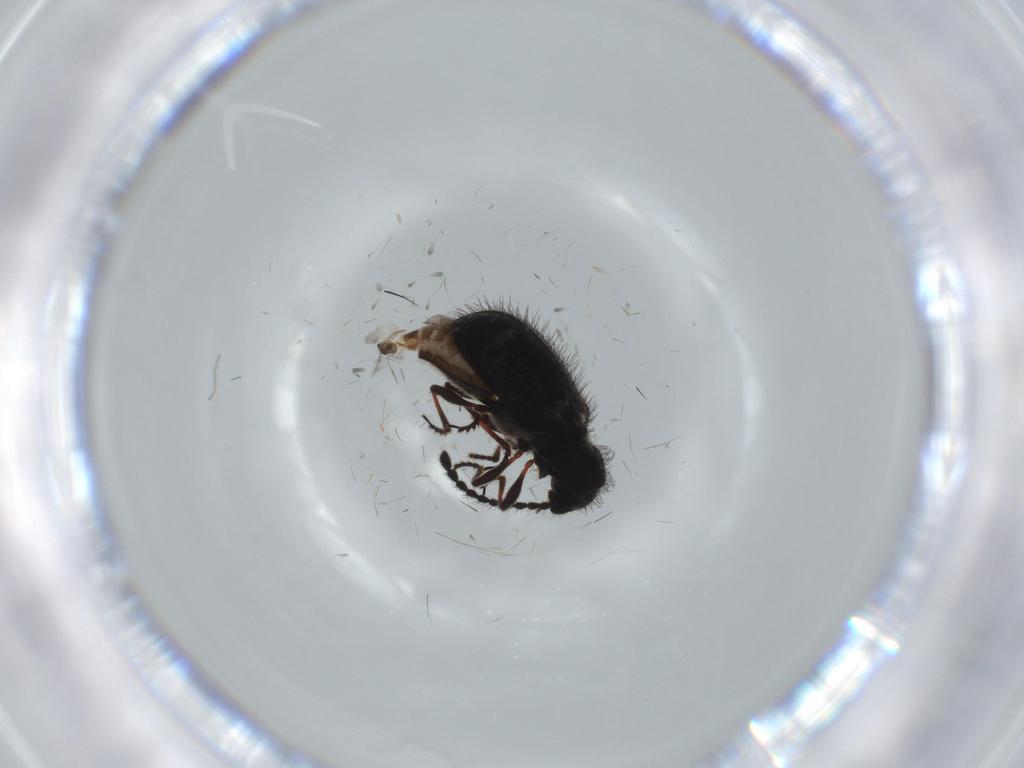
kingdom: Animalia
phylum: Arthropoda
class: Insecta
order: Coleoptera
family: Ptinidae
